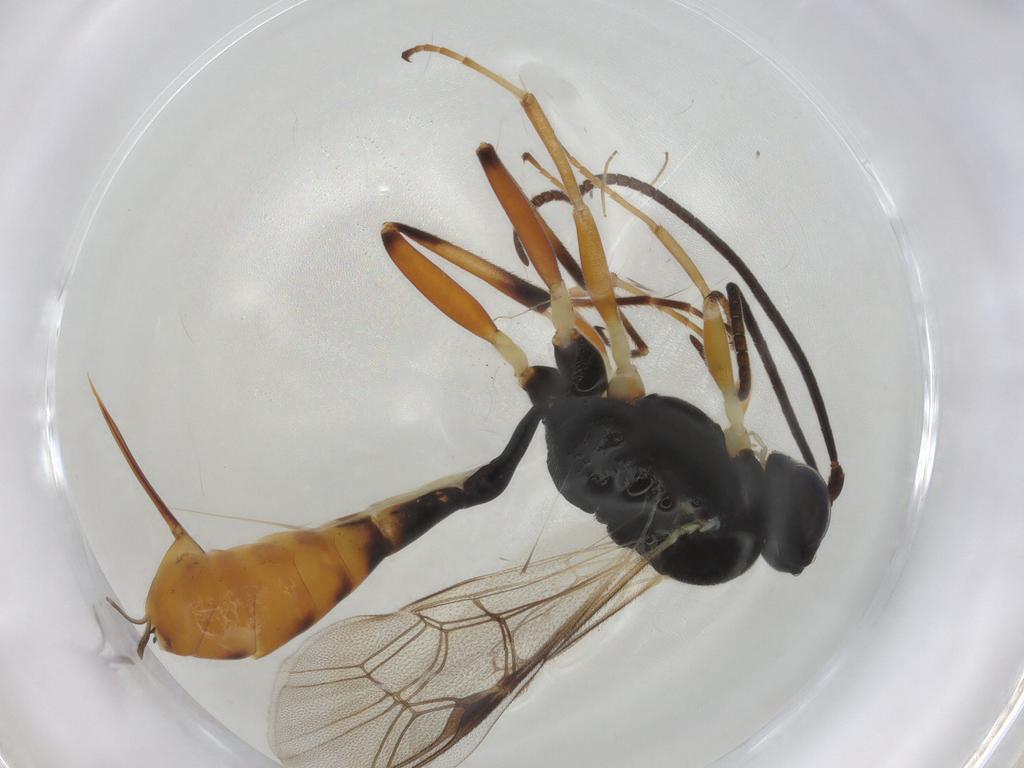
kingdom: Animalia
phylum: Arthropoda
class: Insecta
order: Hymenoptera
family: Ichneumonidae
